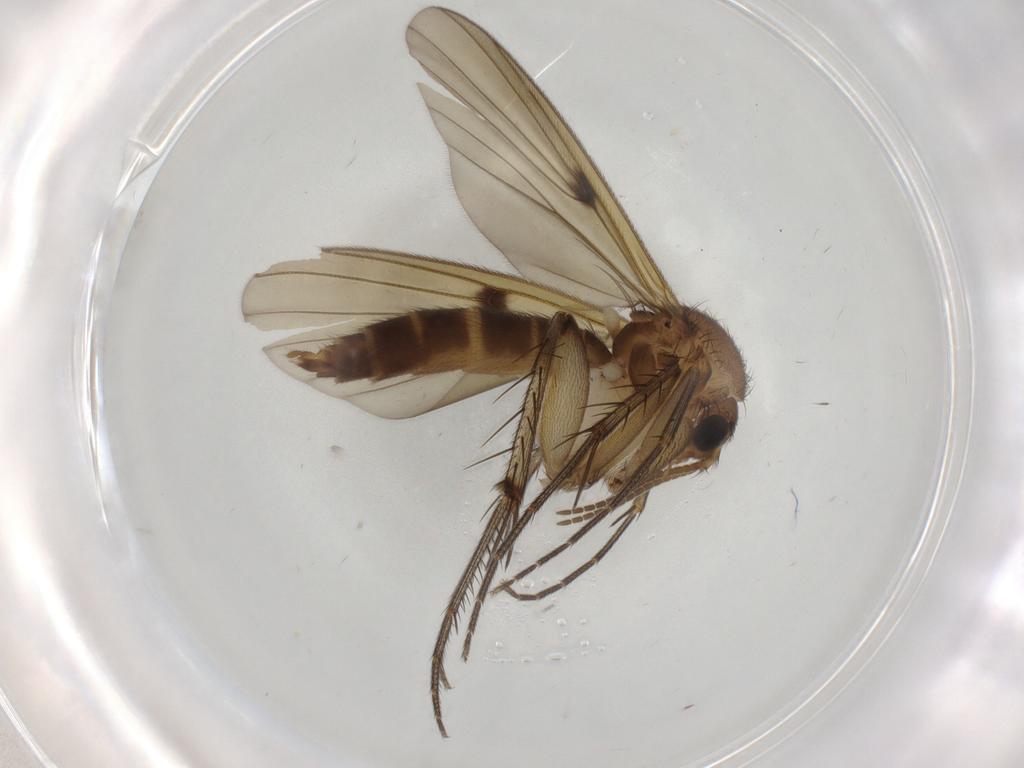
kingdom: Animalia
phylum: Arthropoda
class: Insecta
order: Diptera
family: Mycetophilidae
